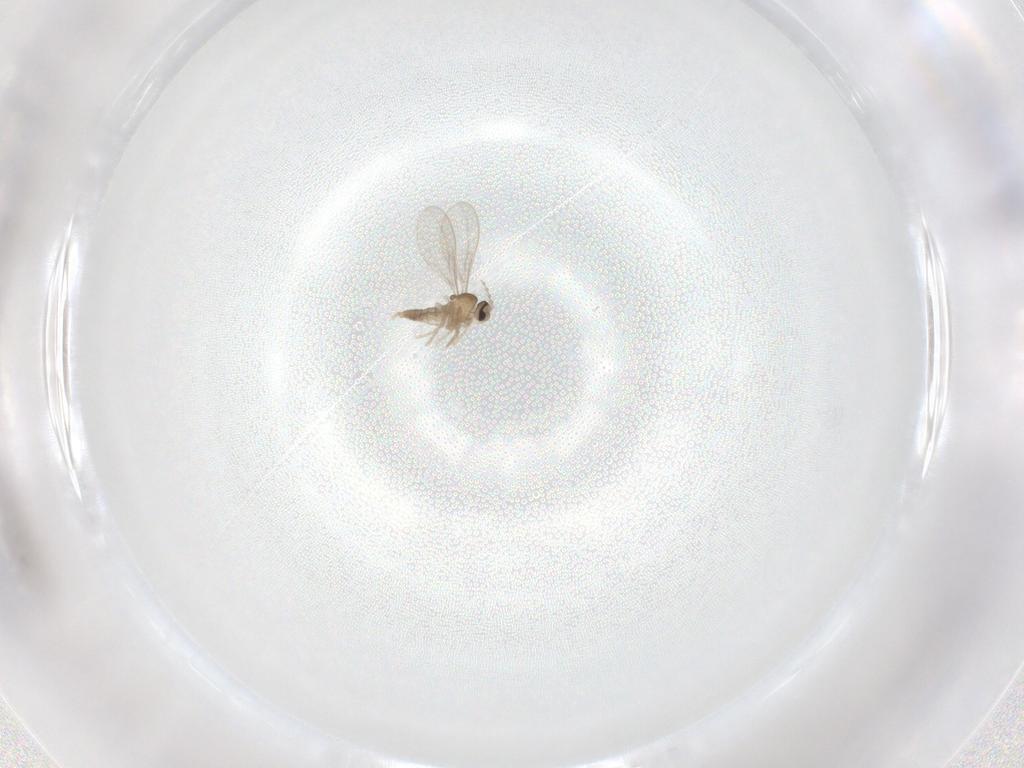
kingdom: Animalia
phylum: Arthropoda
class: Insecta
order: Diptera
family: Cecidomyiidae
